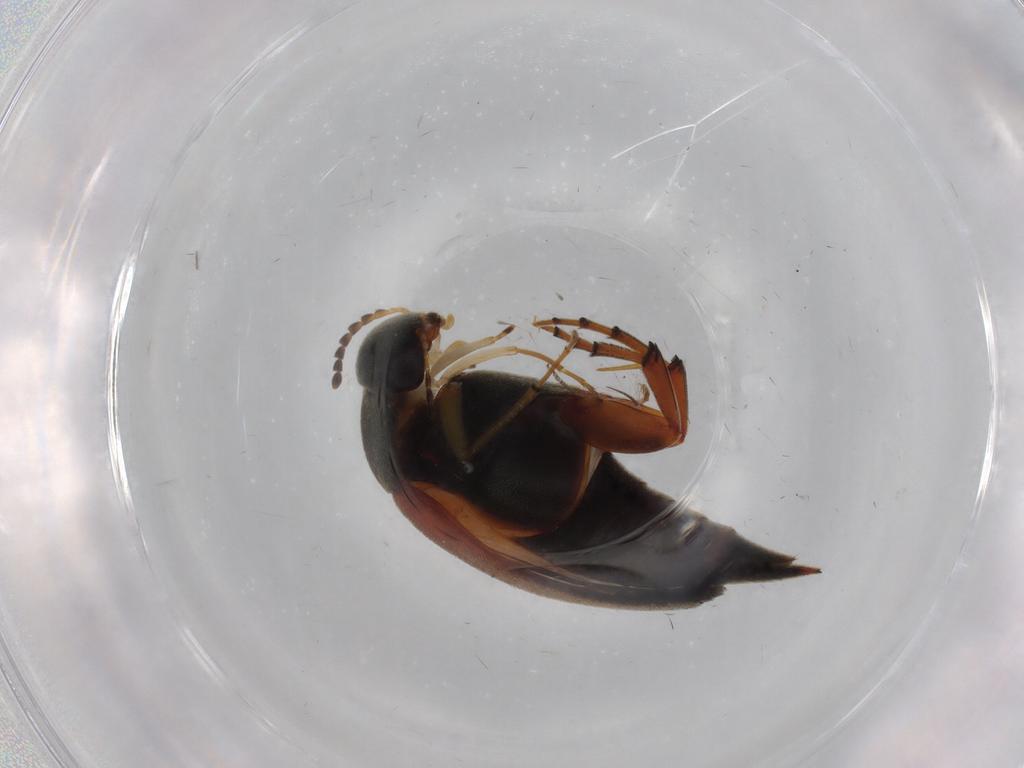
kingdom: Animalia
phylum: Arthropoda
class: Insecta
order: Coleoptera
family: Mordellidae
